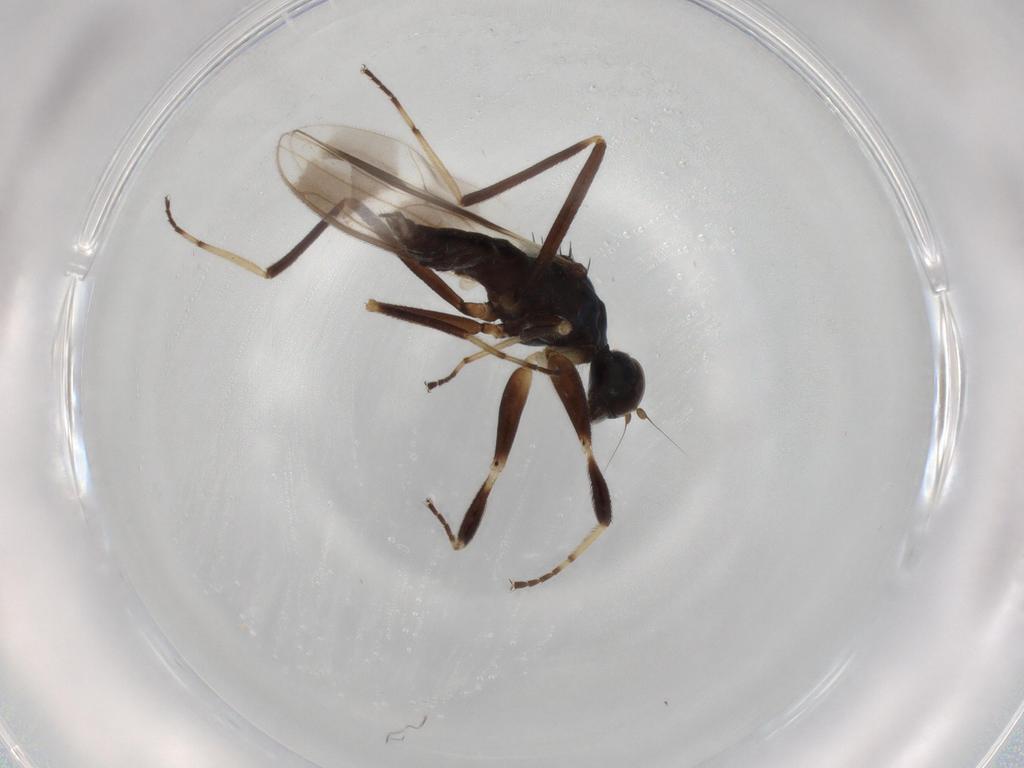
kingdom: Animalia
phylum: Arthropoda
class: Insecta
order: Diptera
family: Hybotidae
